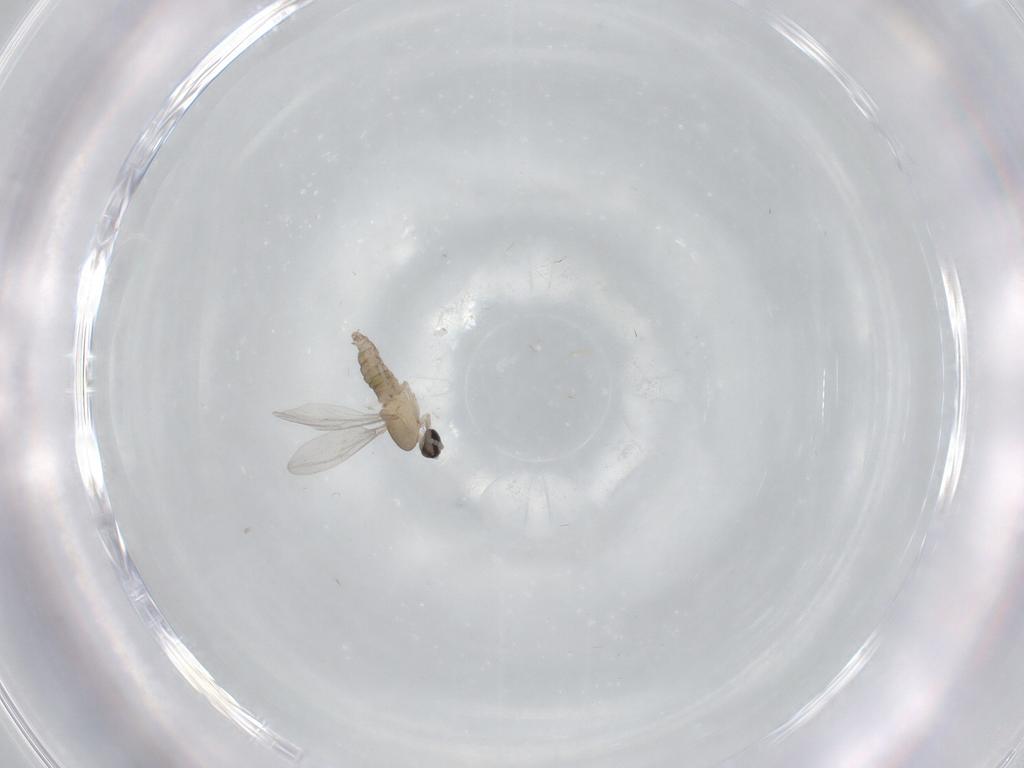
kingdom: Animalia
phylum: Arthropoda
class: Insecta
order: Diptera
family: Cecidomyiidae
